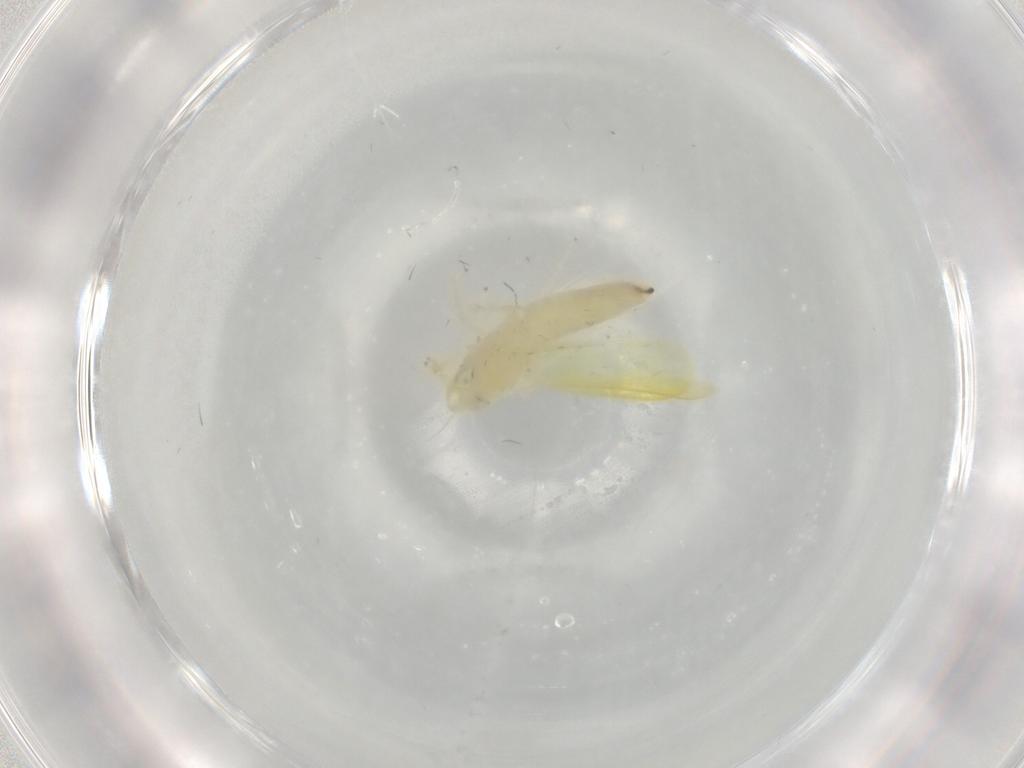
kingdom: Animalia
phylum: Arthropoda
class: Insecta
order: Hemiptera
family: Cicadellidae
